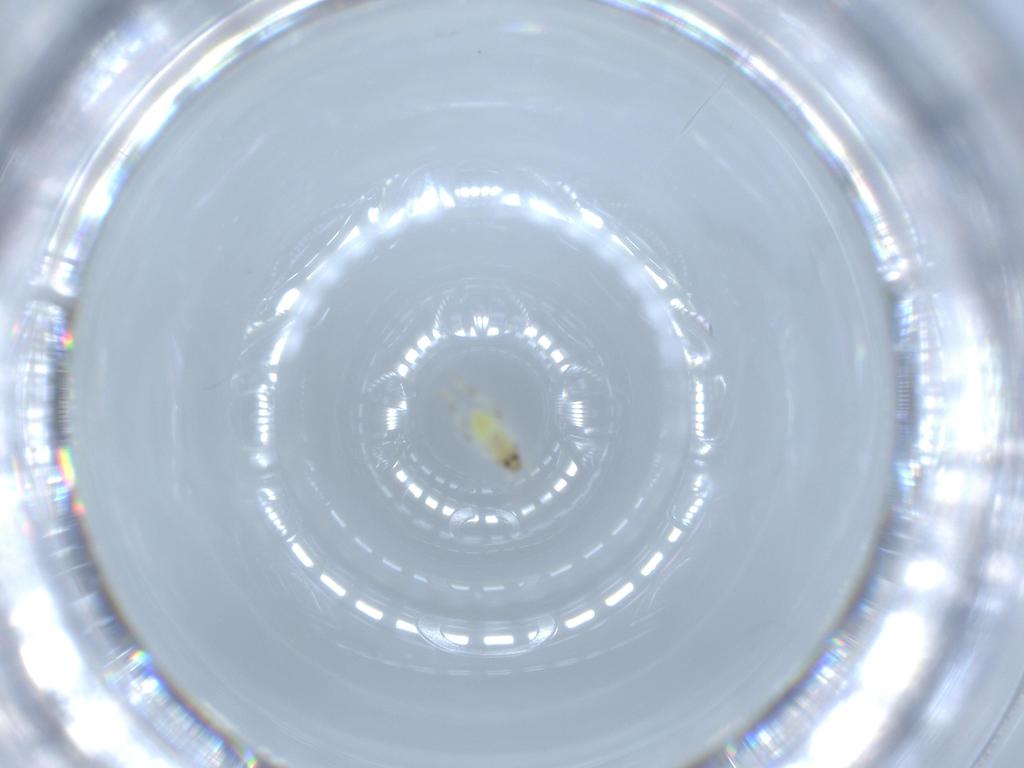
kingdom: Animalia
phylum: Arthropoda
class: Insecta
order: Hemiptera
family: Aleyrodidae
